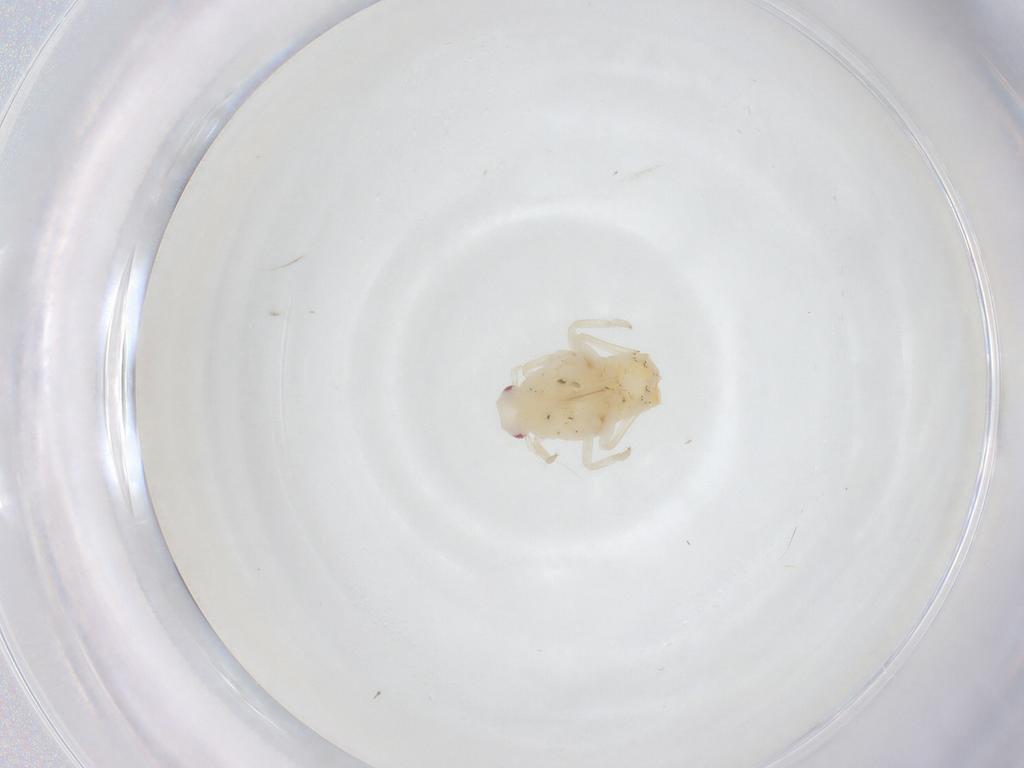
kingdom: Animalia
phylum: Arthropoda
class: Insecta
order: Hemiptera
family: Flatidae
